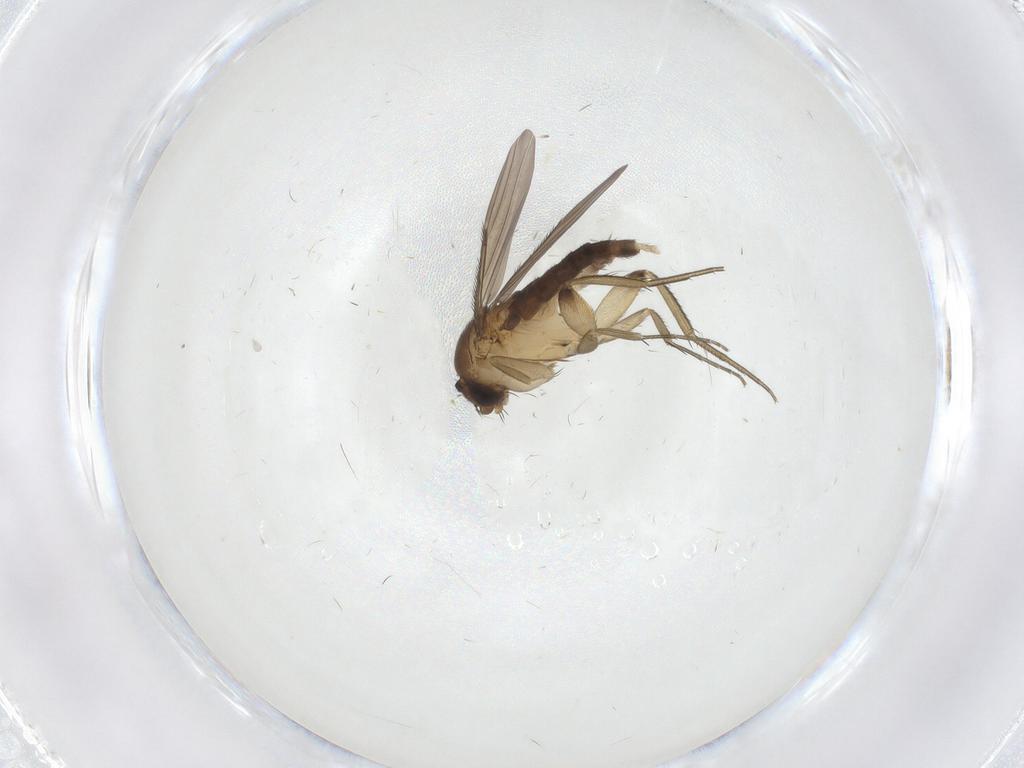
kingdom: Animalia
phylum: Arthropoda
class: Insecta
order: Diptera
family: Phoridae
